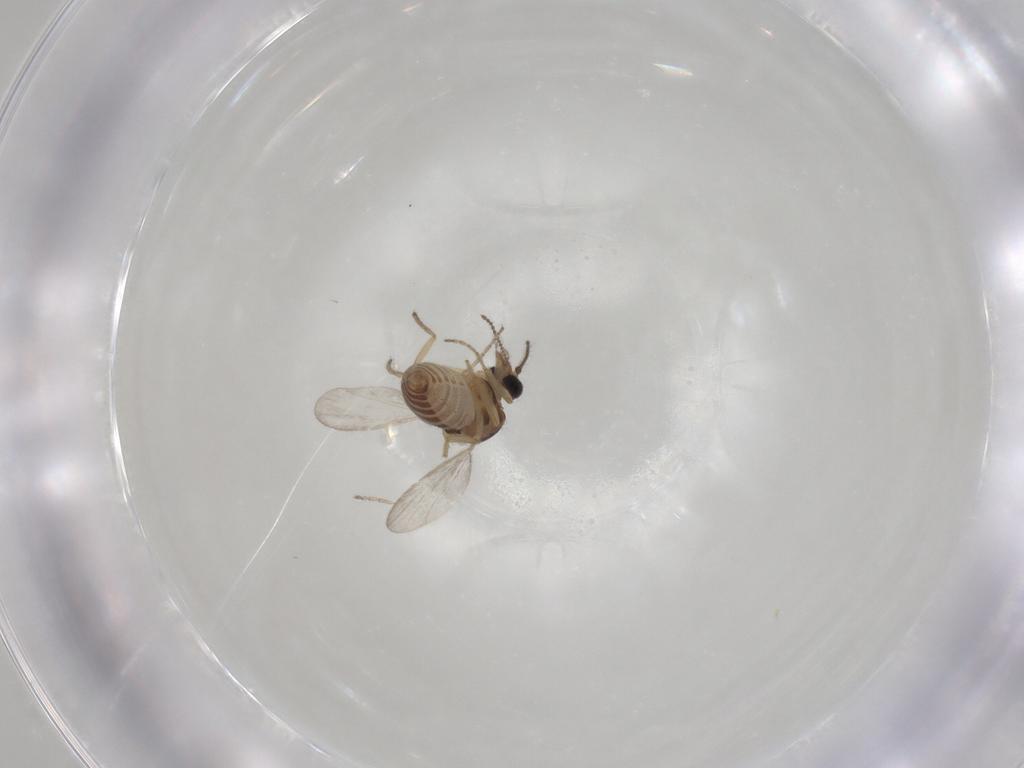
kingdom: Animalia
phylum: Arthropoda
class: Insecta
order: Diptera
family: Ceratopogonidae
